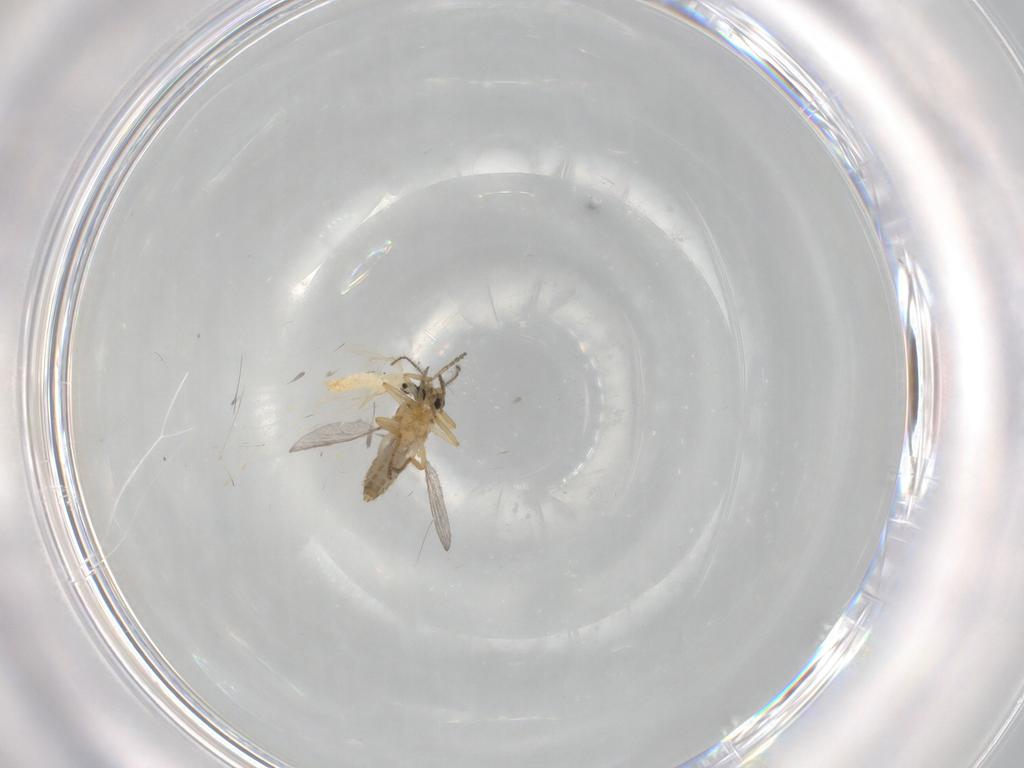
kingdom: Animalia
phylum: Arthropoda
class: Insecta
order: Diptera
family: Cecidomyiidae
